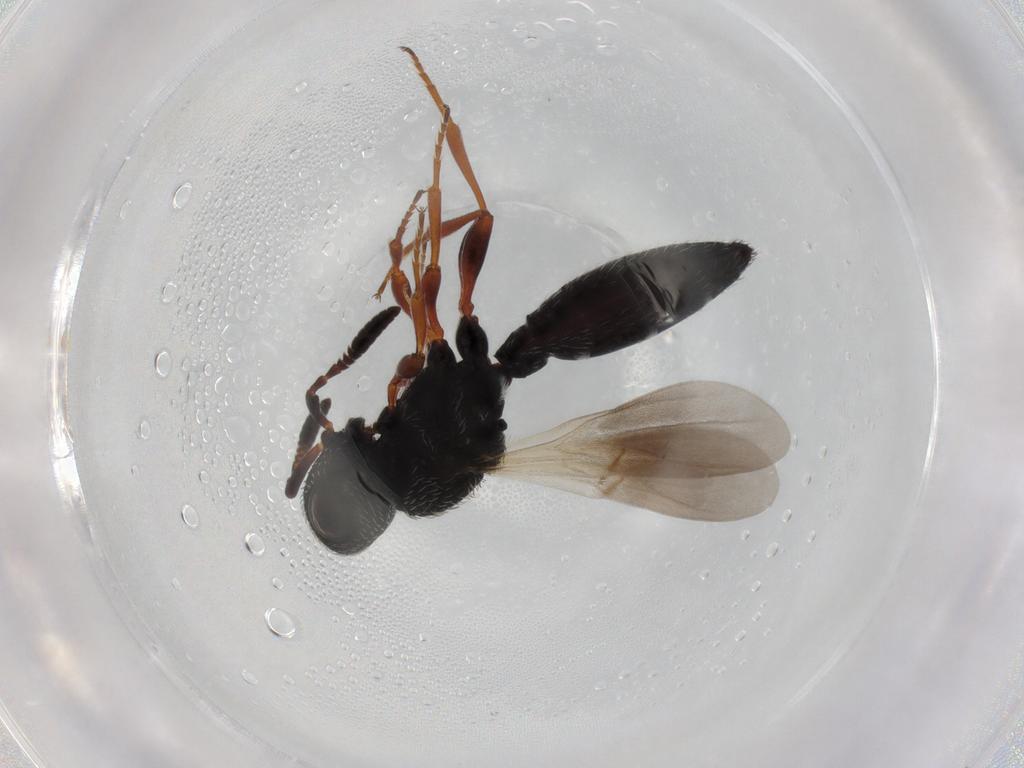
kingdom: Animalia
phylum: Arthropoda
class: Insecta
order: Hymenoptera
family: Scelionidae
